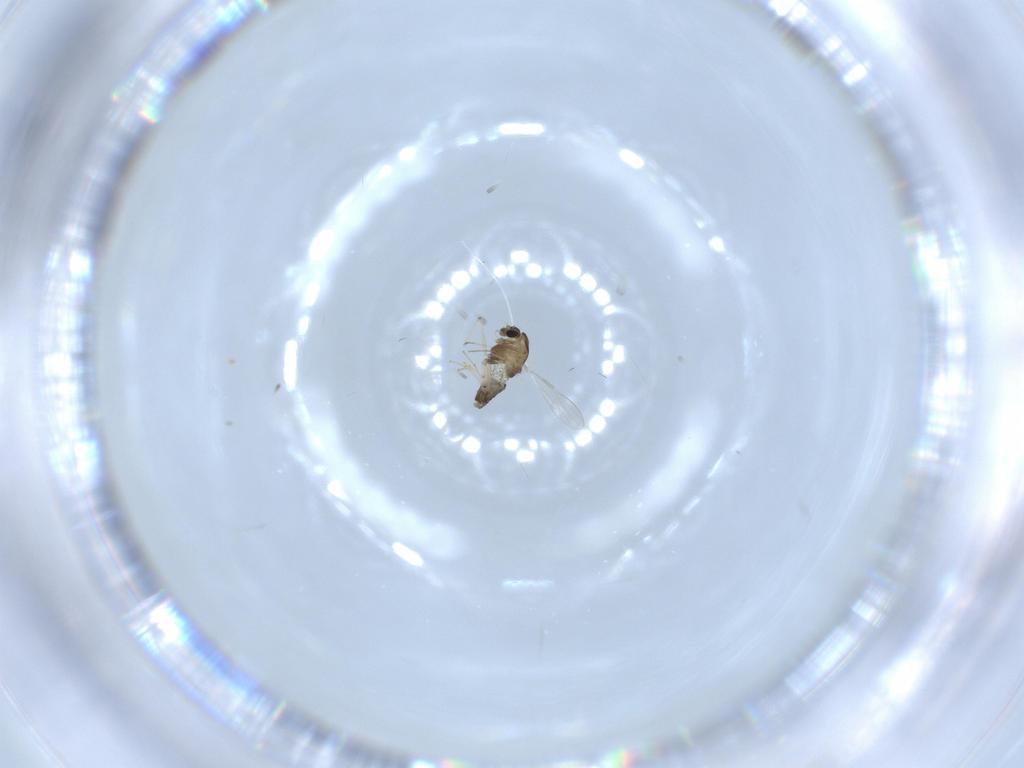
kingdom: Animalia
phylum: Arthropoda
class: Insecta
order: Diptera
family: Chironomidae
